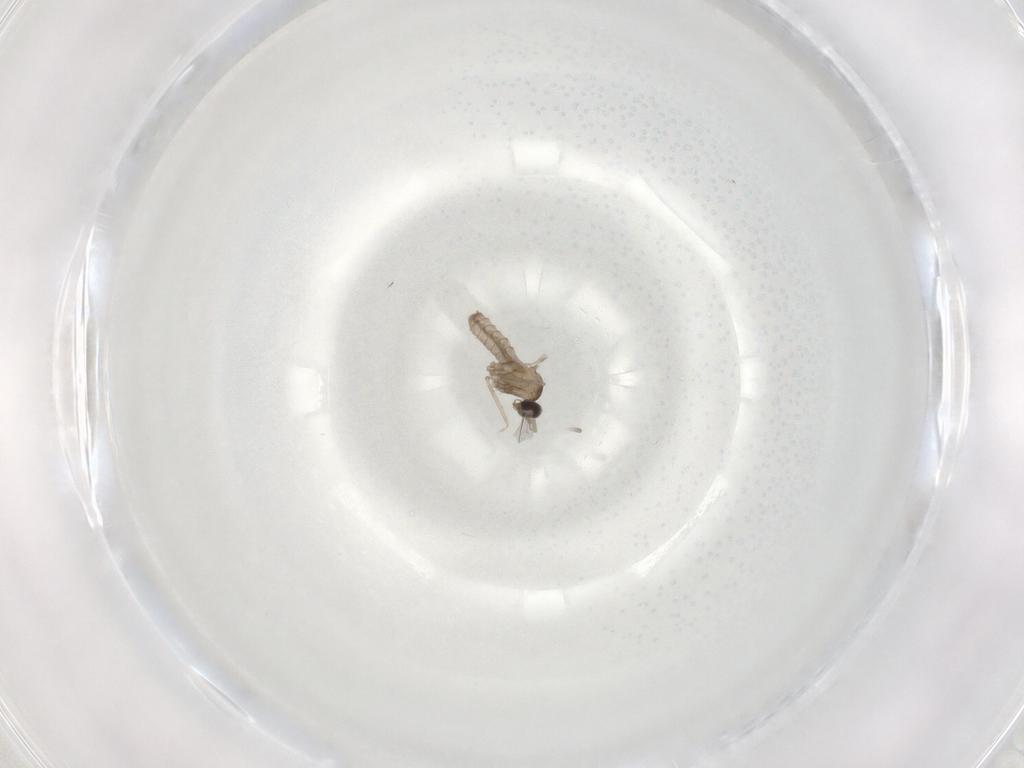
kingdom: Animalia
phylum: Arthropoda
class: Insecta
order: Diptera
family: Cecidomyiidae
